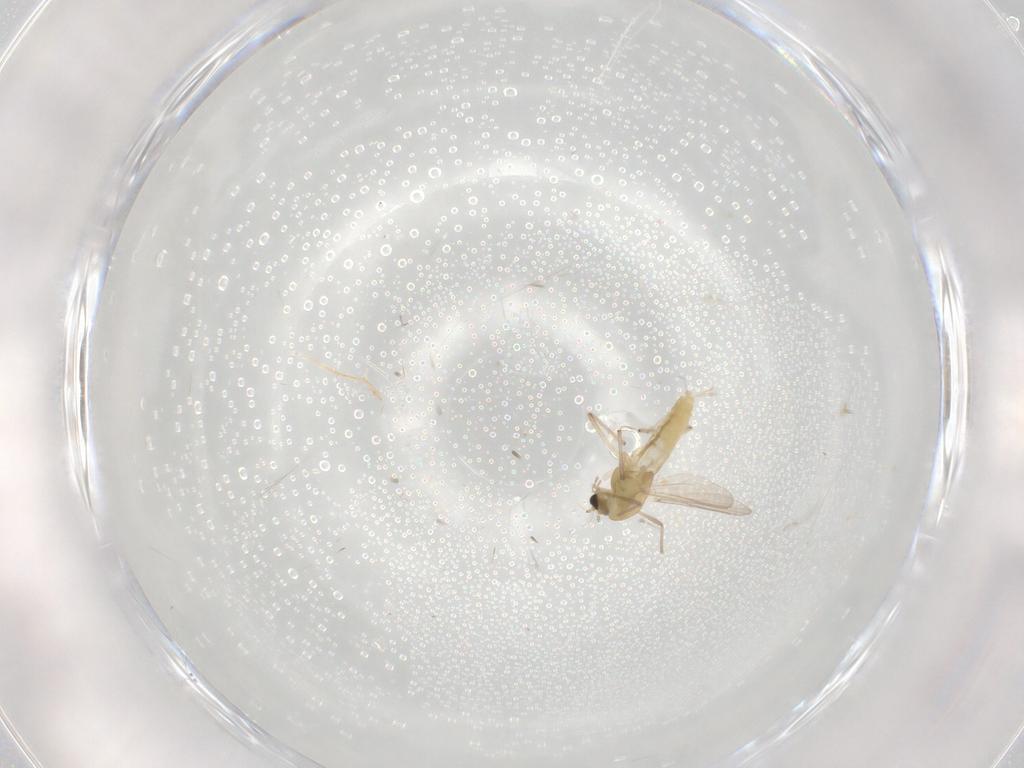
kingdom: Animalia
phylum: Arthropoda
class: Insecta
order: Diptera
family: Chironomidae
